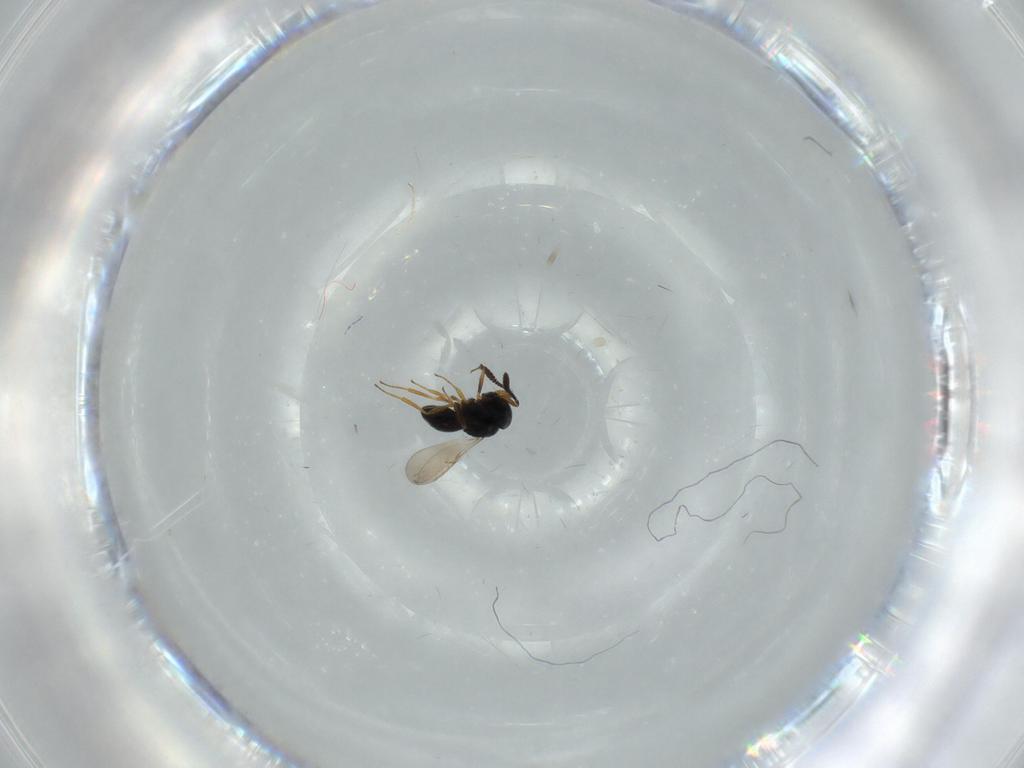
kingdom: Animalia
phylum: Arthropoda
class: Insecta
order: Hymenoptera
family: Scelionidae
